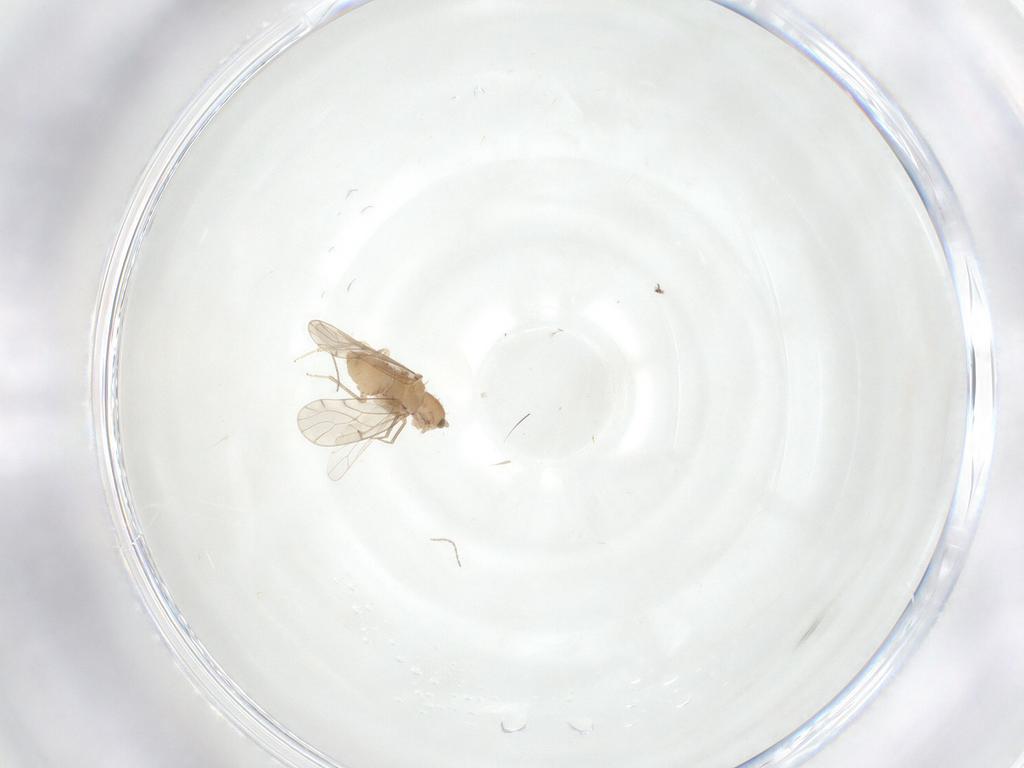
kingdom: Animalia
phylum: Arthropoda
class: Insecta
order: Psocodea
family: Ectopsocidae
